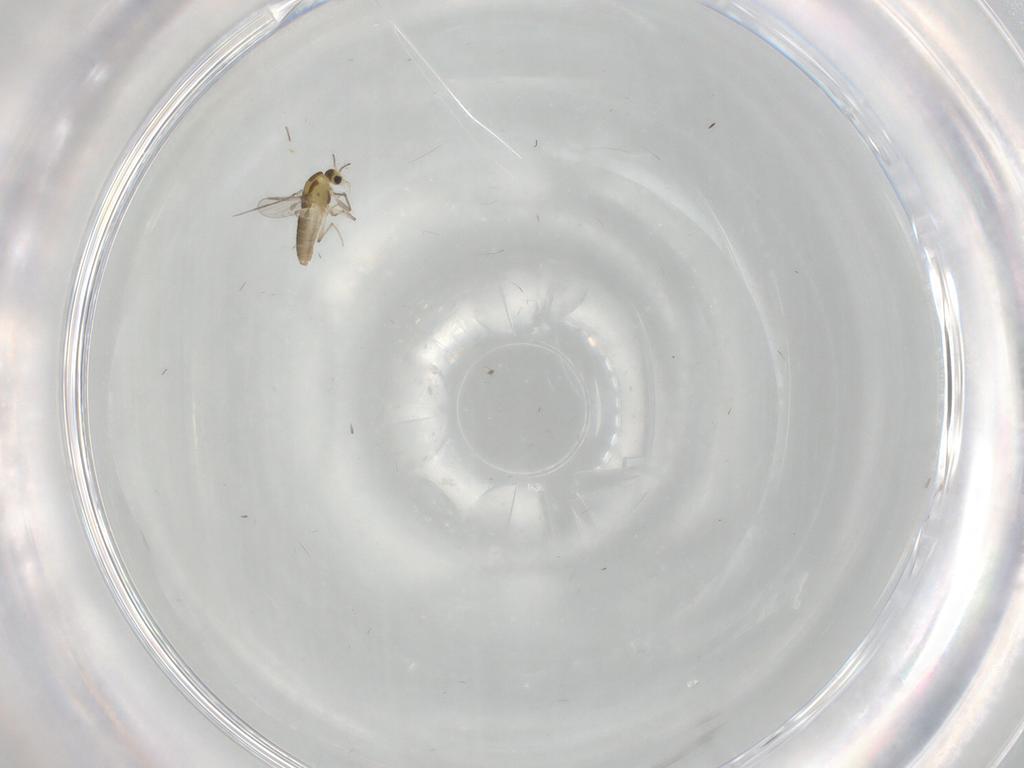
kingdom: Animalia
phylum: Arthropoda
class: Insecta
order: Diptera
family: Chironomidae
